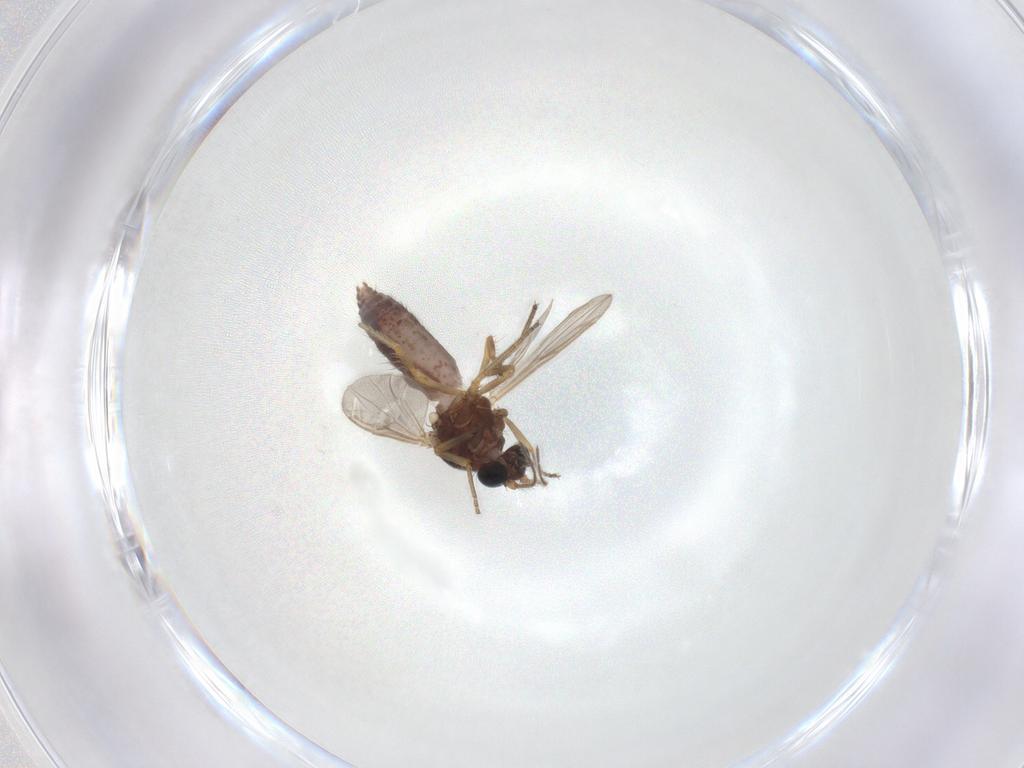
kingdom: Animalia
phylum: Arthropoda
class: Insecta
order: Diptera
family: Ceratopogonidae
